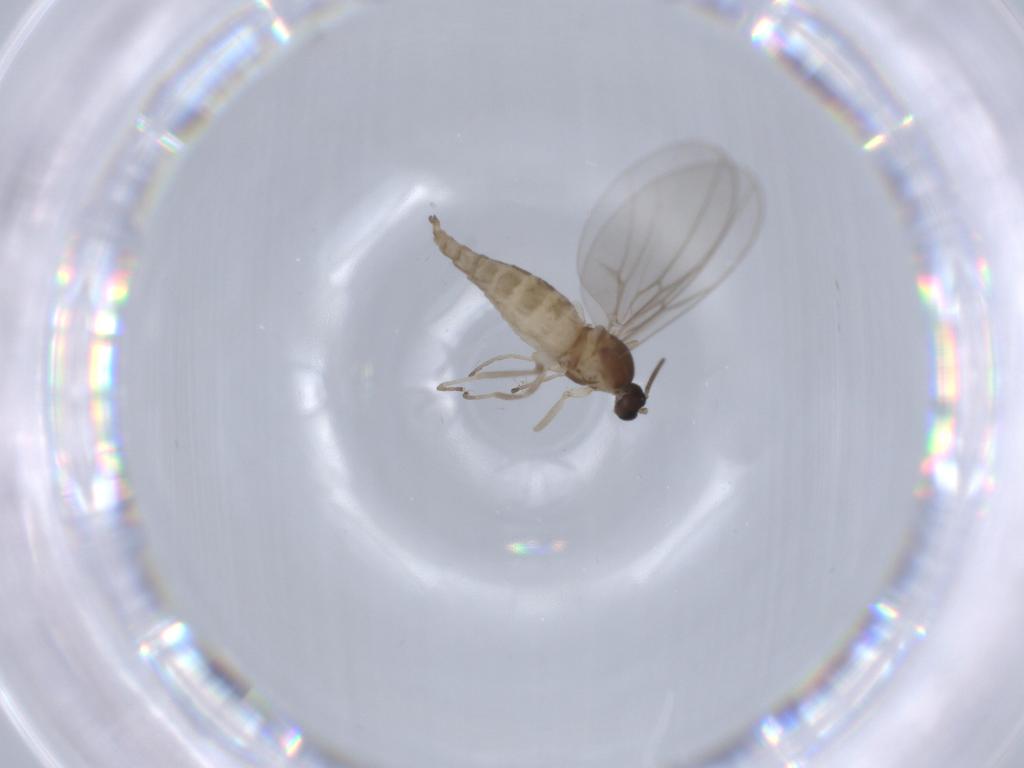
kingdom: Animalia
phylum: Arthropoda
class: Insecta
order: Diptera
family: Cecidomyiidae
